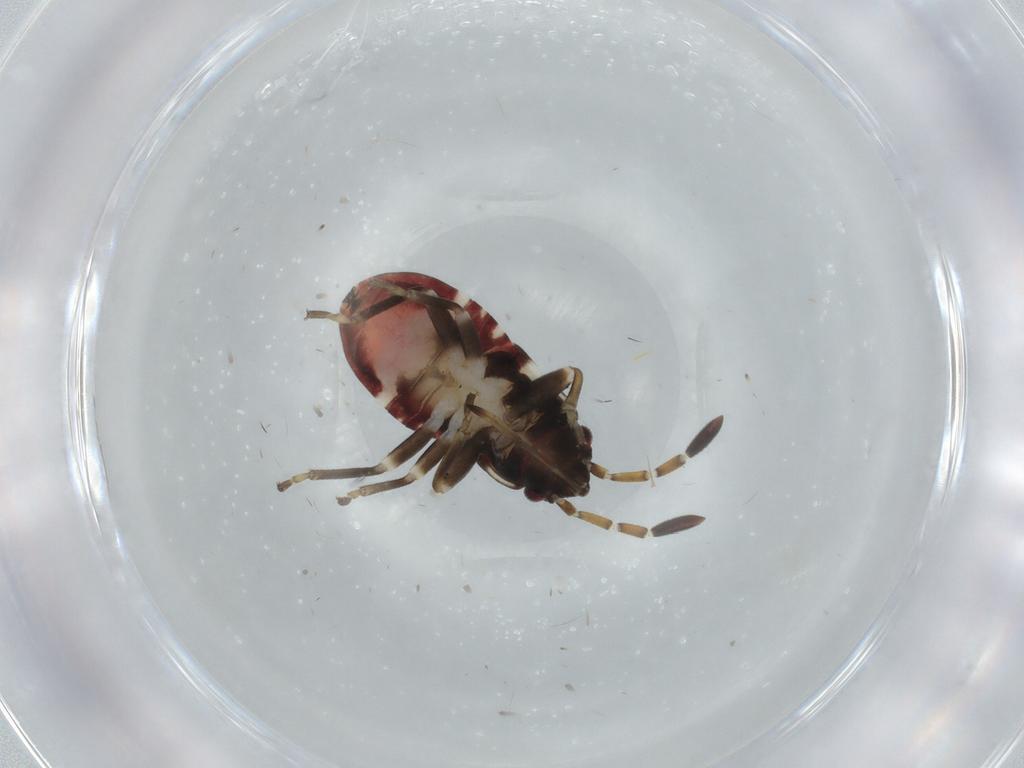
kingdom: Animalia
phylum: Arthropoda
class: Insecta
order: Hemiptera
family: Rhyparochromidae
